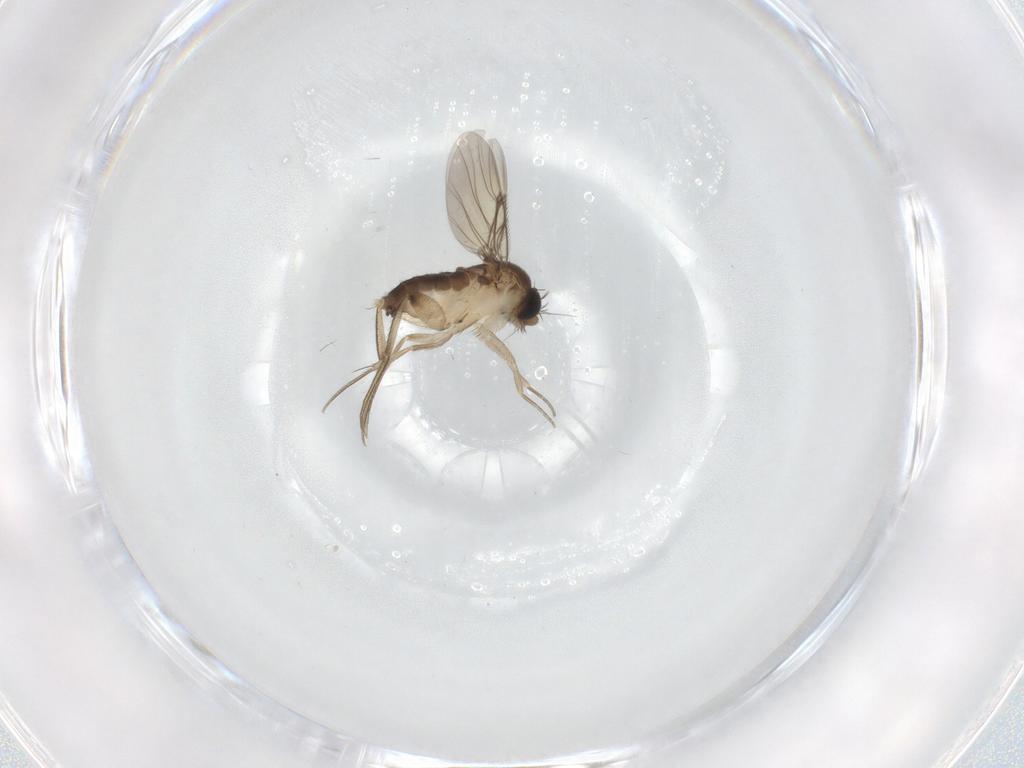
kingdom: Animalia
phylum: Arthropoda
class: Insecta
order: Diptera
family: Phoridae
